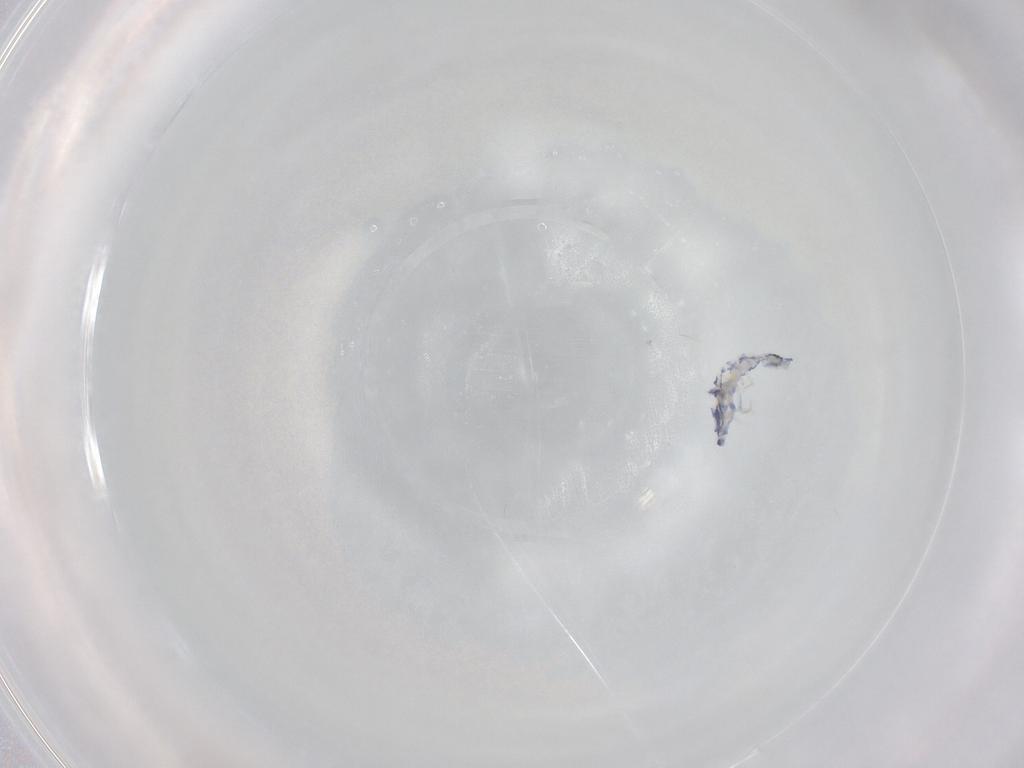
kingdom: Animalia
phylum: Arthropoda
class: Collembola
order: Entomobryomorpha
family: Entomobryidae
